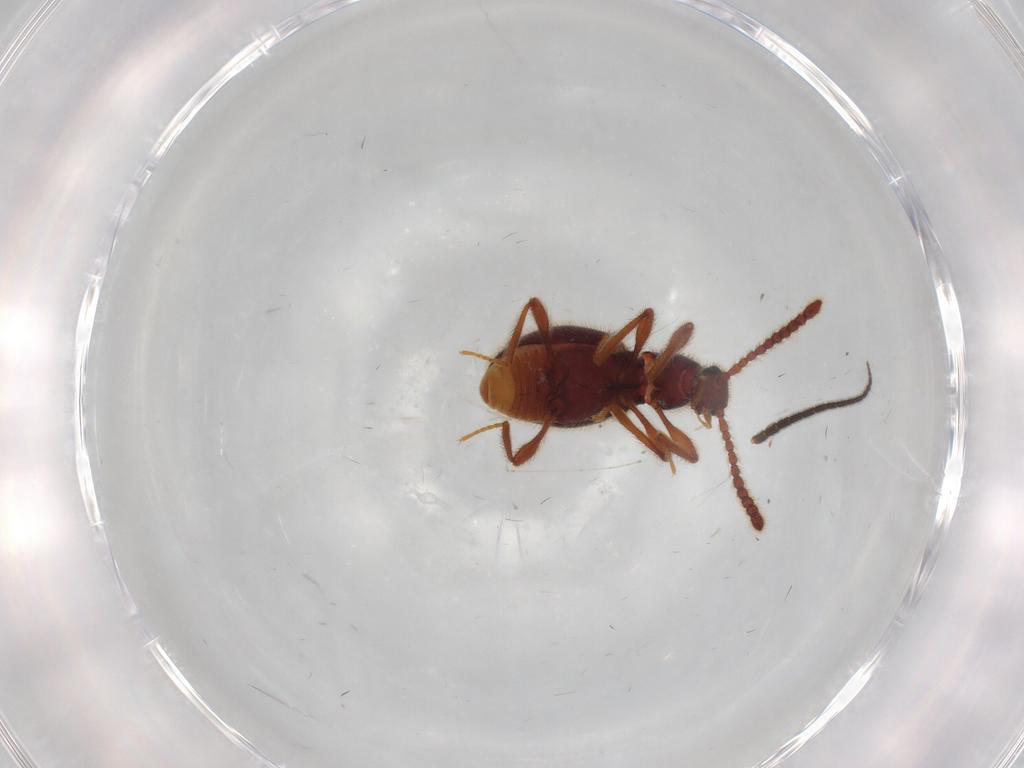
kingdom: Animalia
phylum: Arthropoda
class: Insecta
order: Coleoptera
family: Staphylinidae
